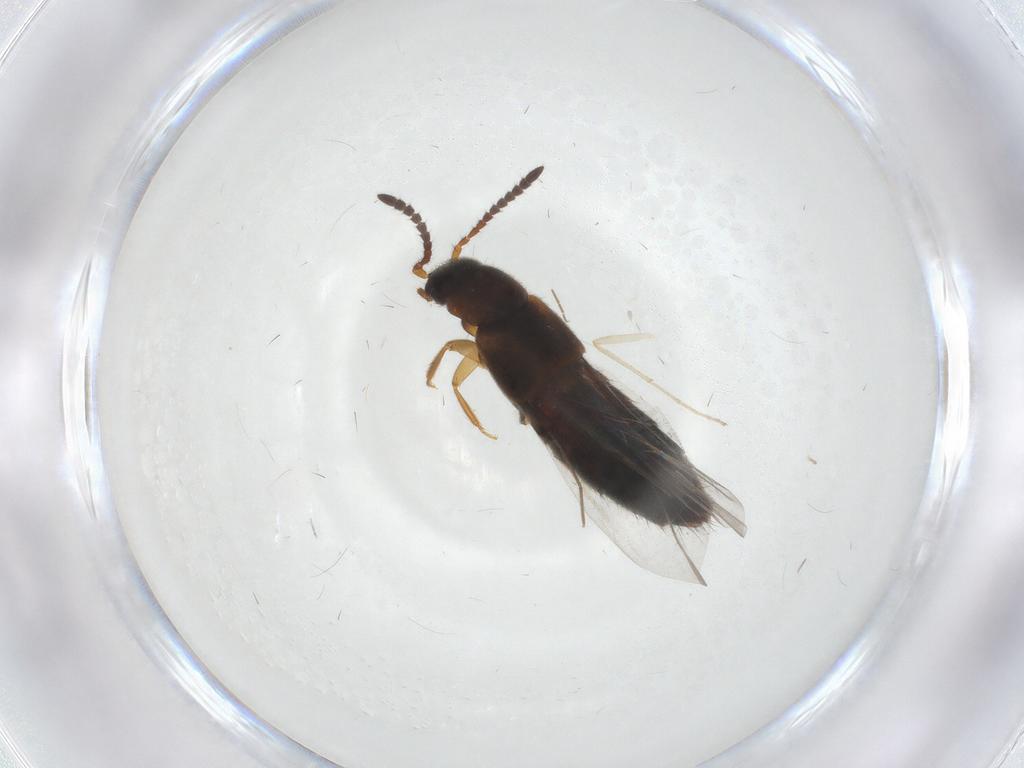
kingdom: Animalia
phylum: Arthropoda
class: Insecta
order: Coleoptera
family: Staphylinidae
